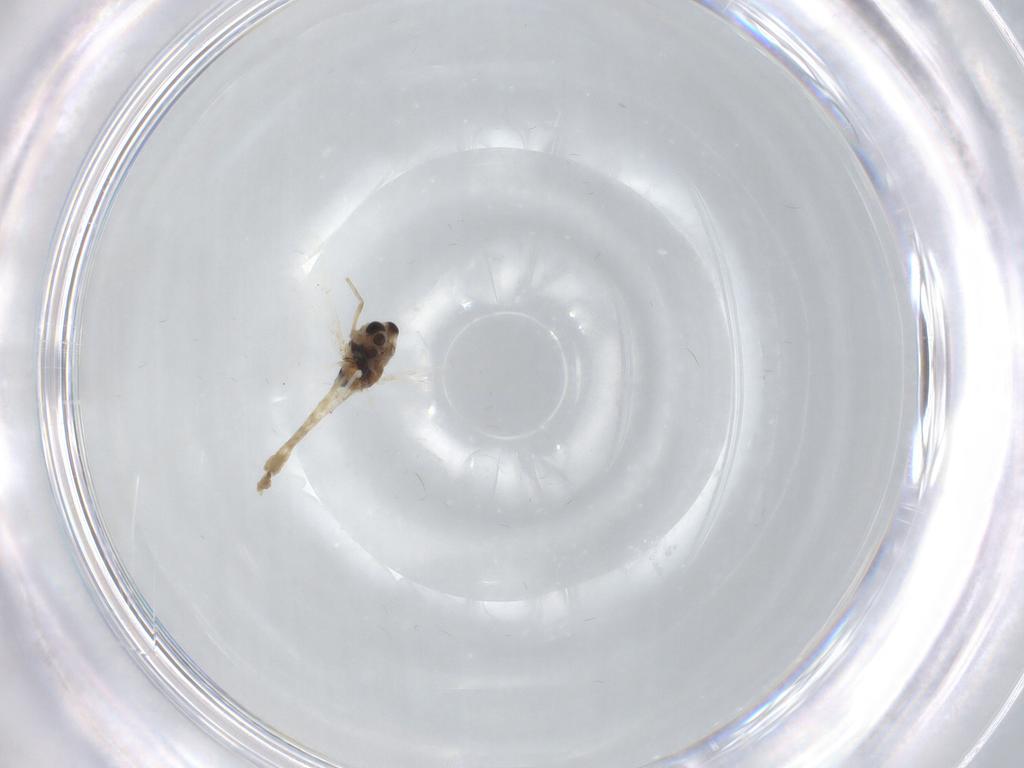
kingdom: Animalia
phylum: Arthropoda
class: Insecta
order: Diptera
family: Chironomidae
